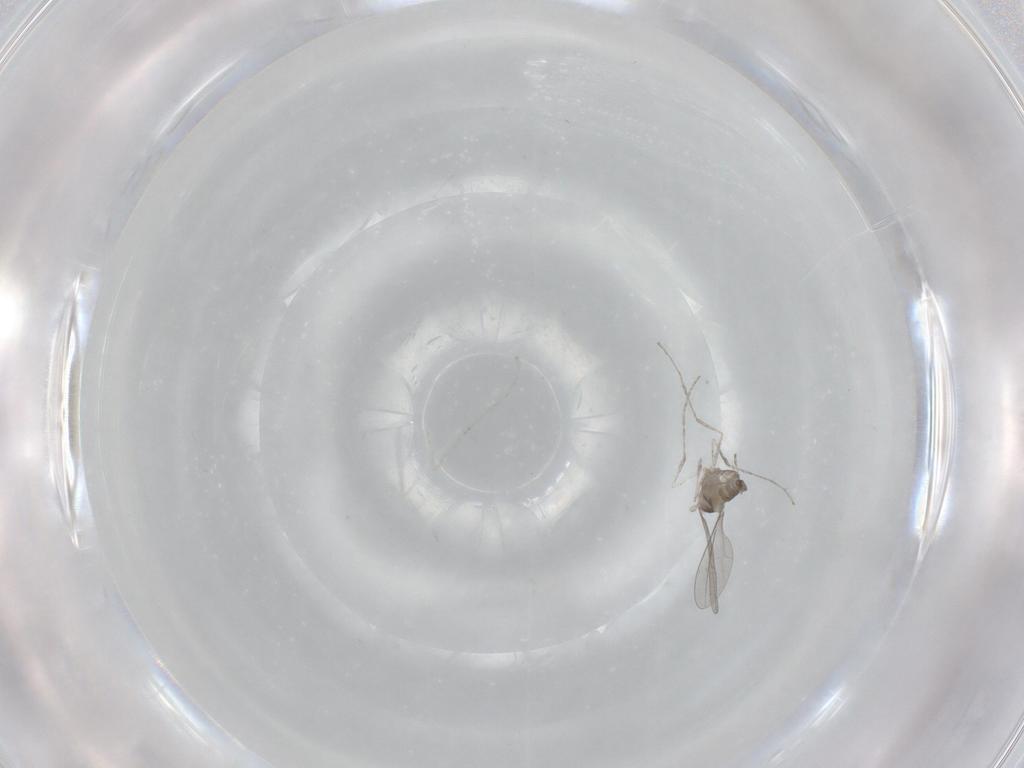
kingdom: Animalia
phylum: Arthropoda
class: Insecta
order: Diptera
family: Cecidomyiidae
